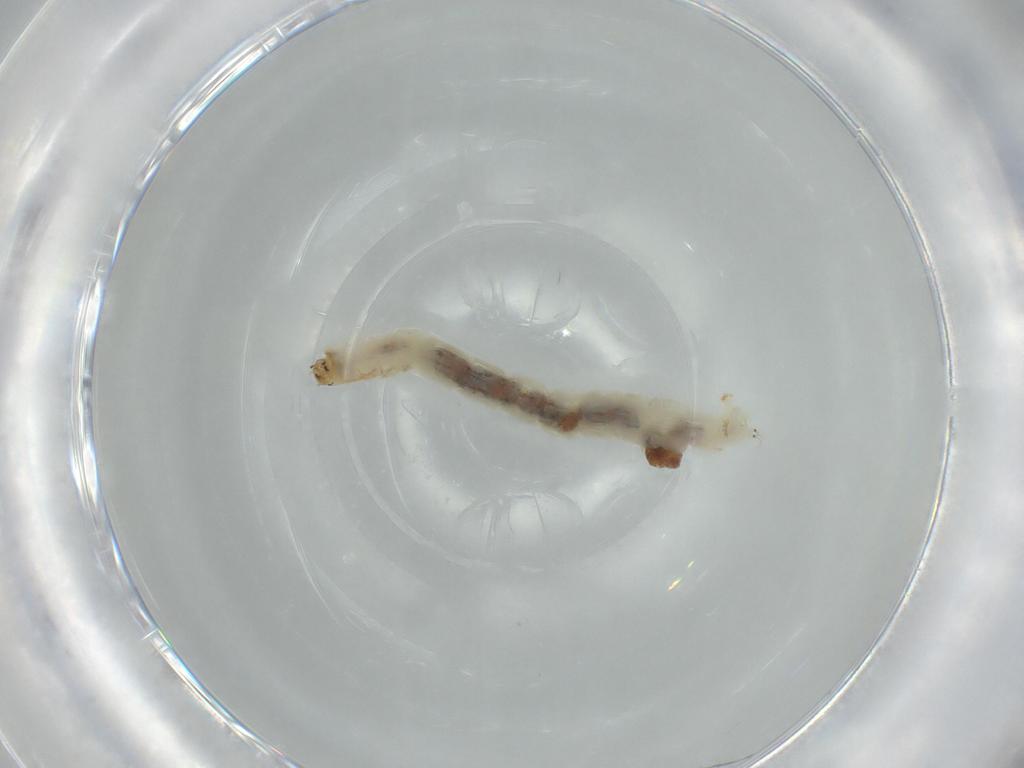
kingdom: Animalia
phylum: Arthropoda
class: Insecta
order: Diptera
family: Chironomidae
